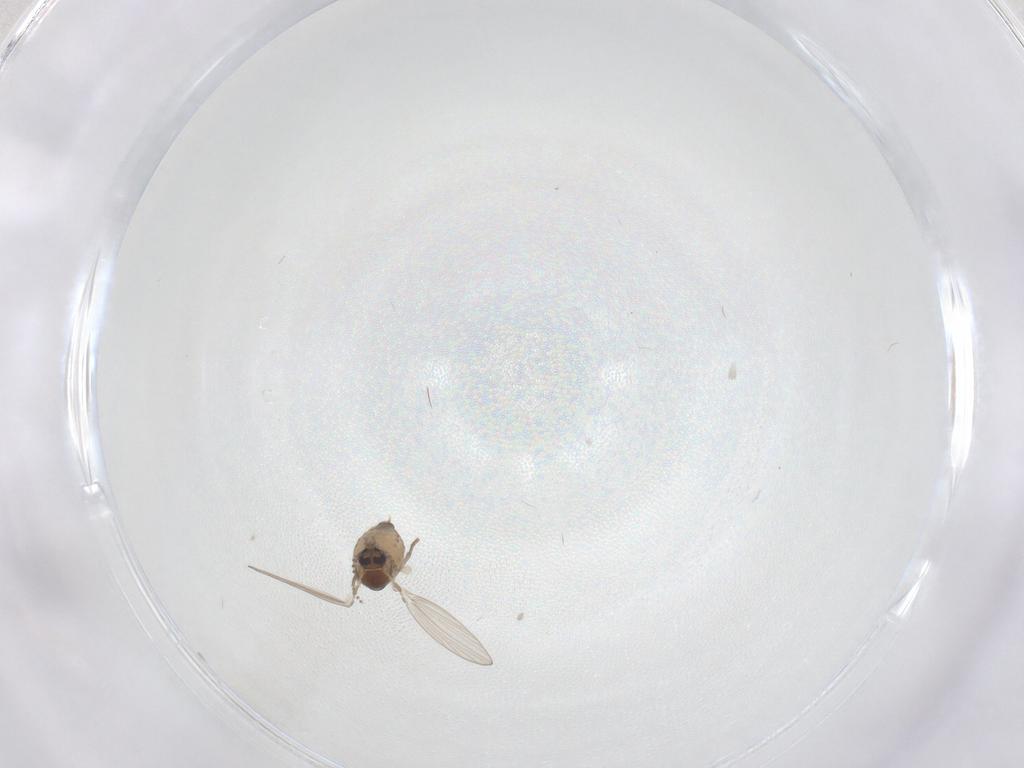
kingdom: Animalia
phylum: Arthropoda
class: Insecta
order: Diptera
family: Psychodidae
